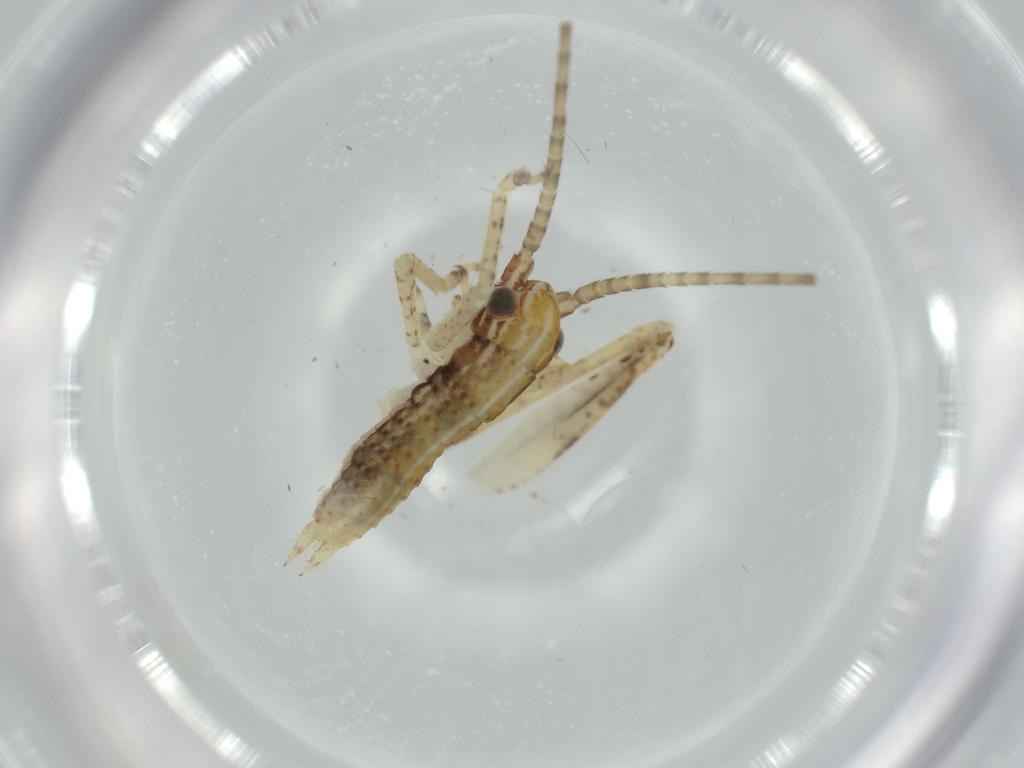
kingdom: Animalia
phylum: Arthropoda
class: Insecta
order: Orthoptera
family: Gryllidae
